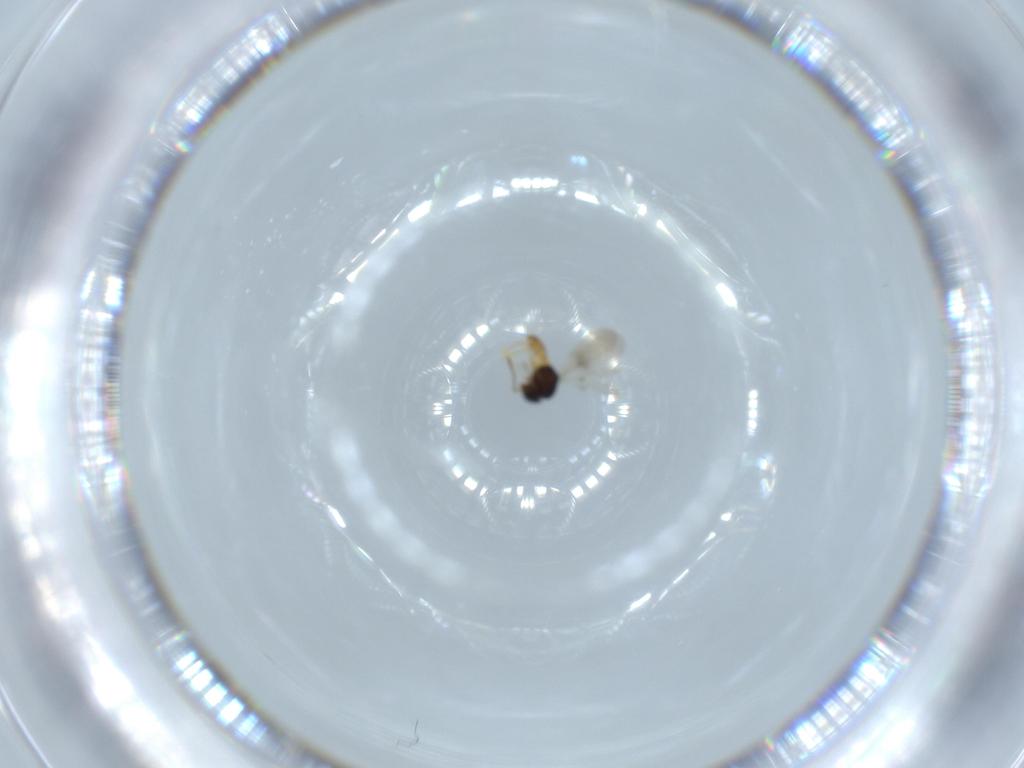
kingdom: Animalia
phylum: Arthropoda
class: Insecta
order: Hymenoptera
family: Scelionidae
